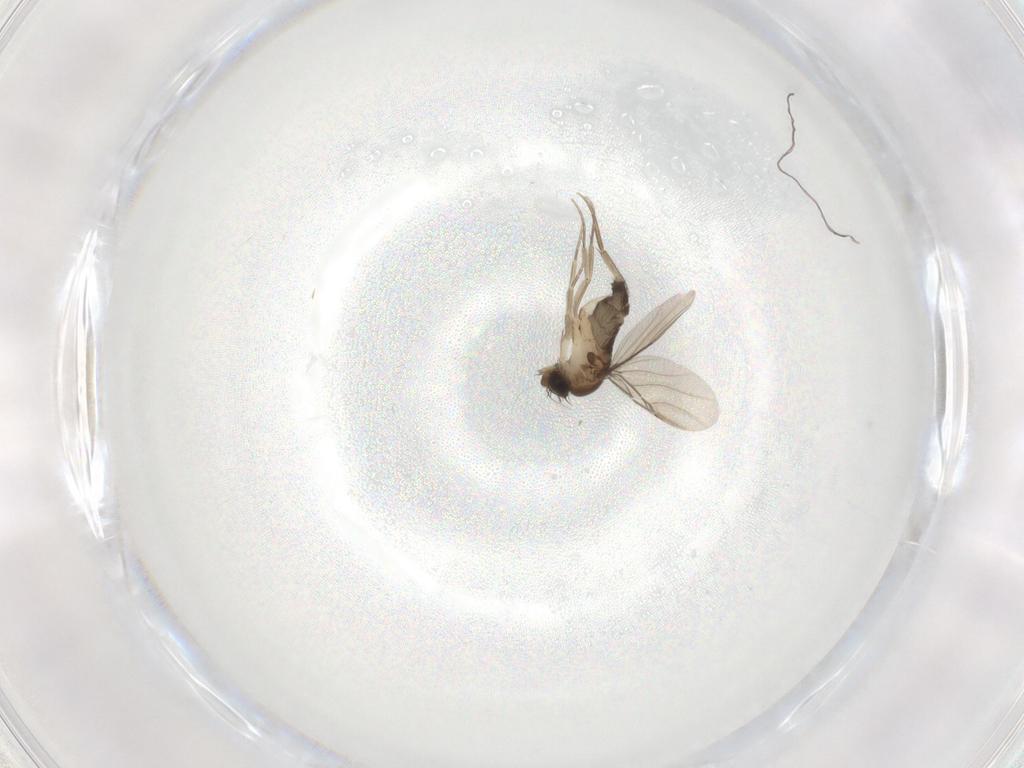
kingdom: Animalia
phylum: Arthropoda
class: Insecta
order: Diptera
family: Phoridae
